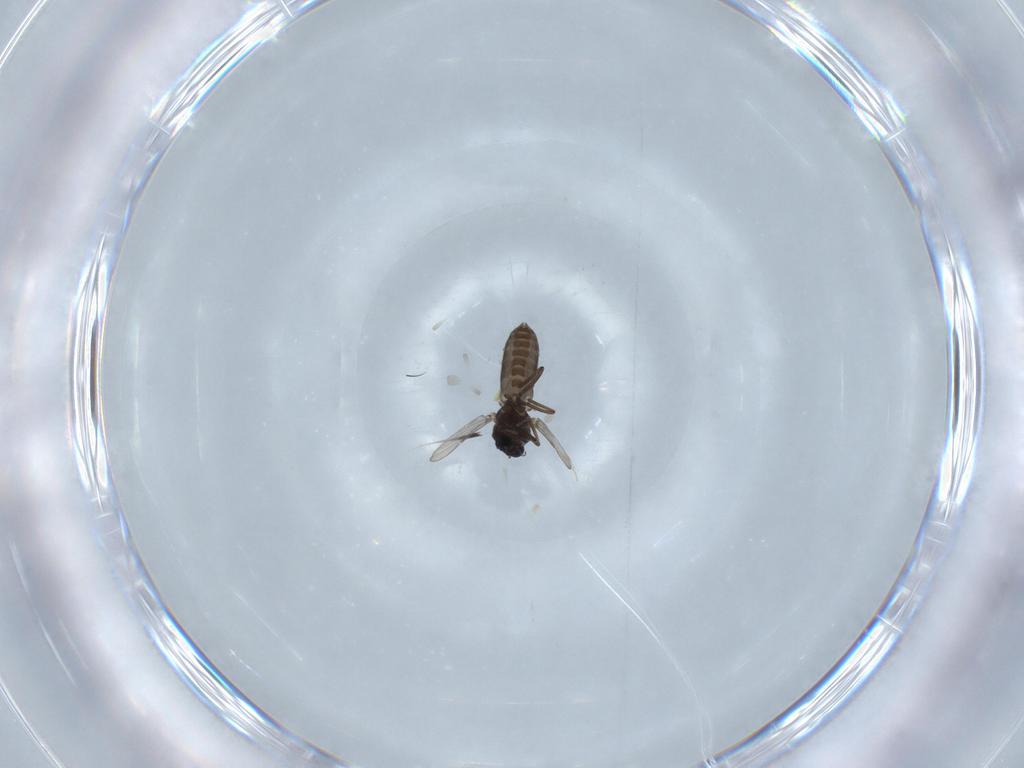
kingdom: Animalia
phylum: Arthropoda
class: Insecta
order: Diptera
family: Ceratopogonidae
